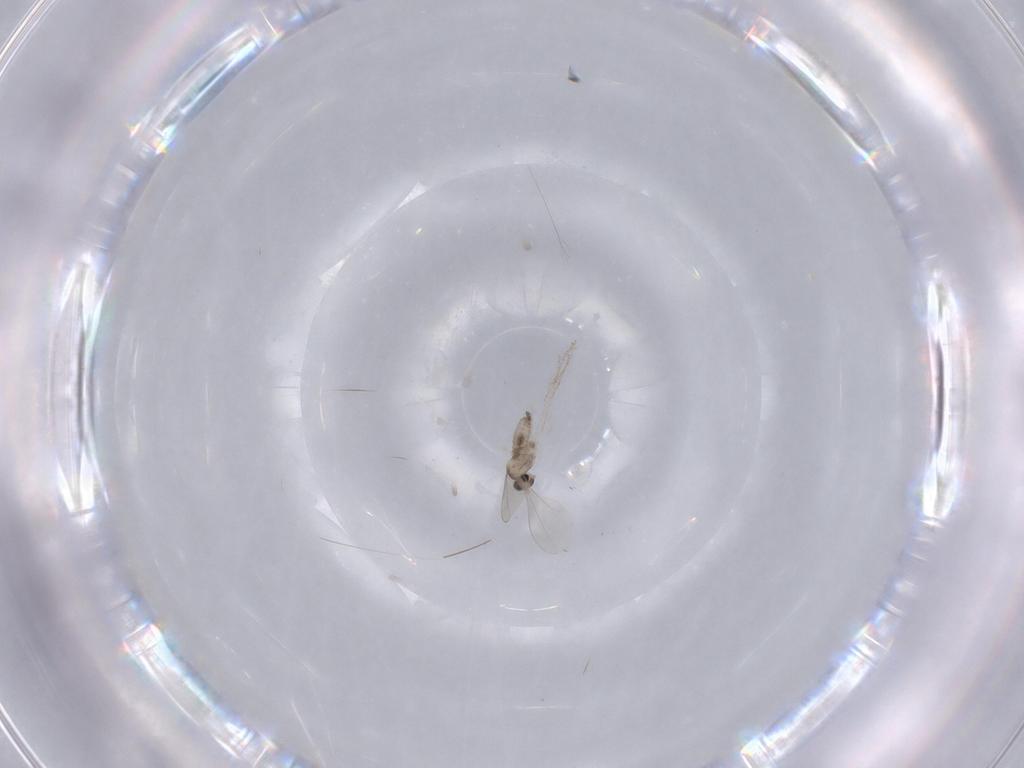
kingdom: Animalia
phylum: Arthropoda
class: Insecta
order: Diptera
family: Cecidomyiidae
